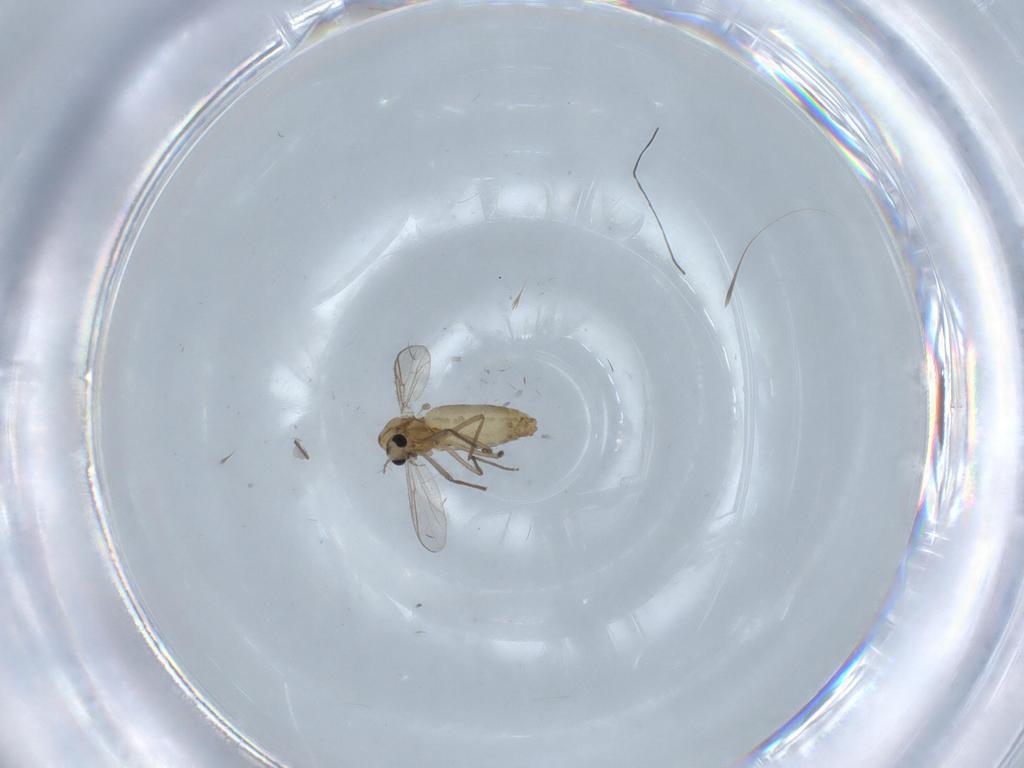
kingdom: Animalia
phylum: Arthropoda
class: Insecta
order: Diptera
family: Chironomidae
